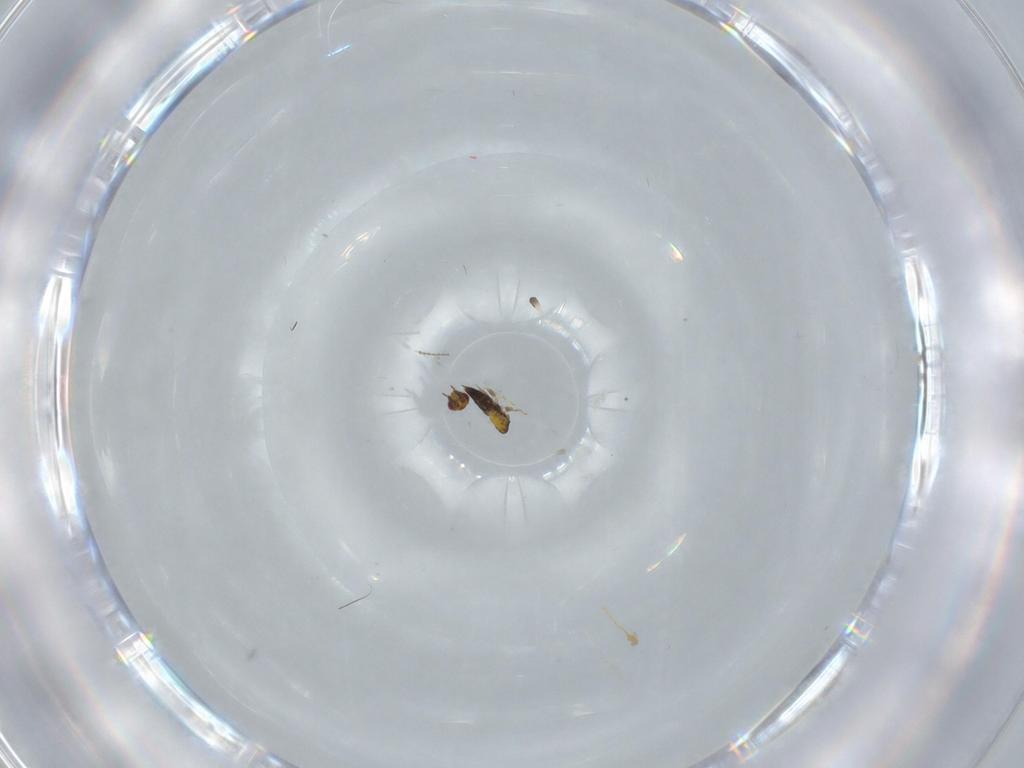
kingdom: Animalia
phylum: Arthropoda
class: Insecta
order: Hymenoptera
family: Trichogrammatidae
